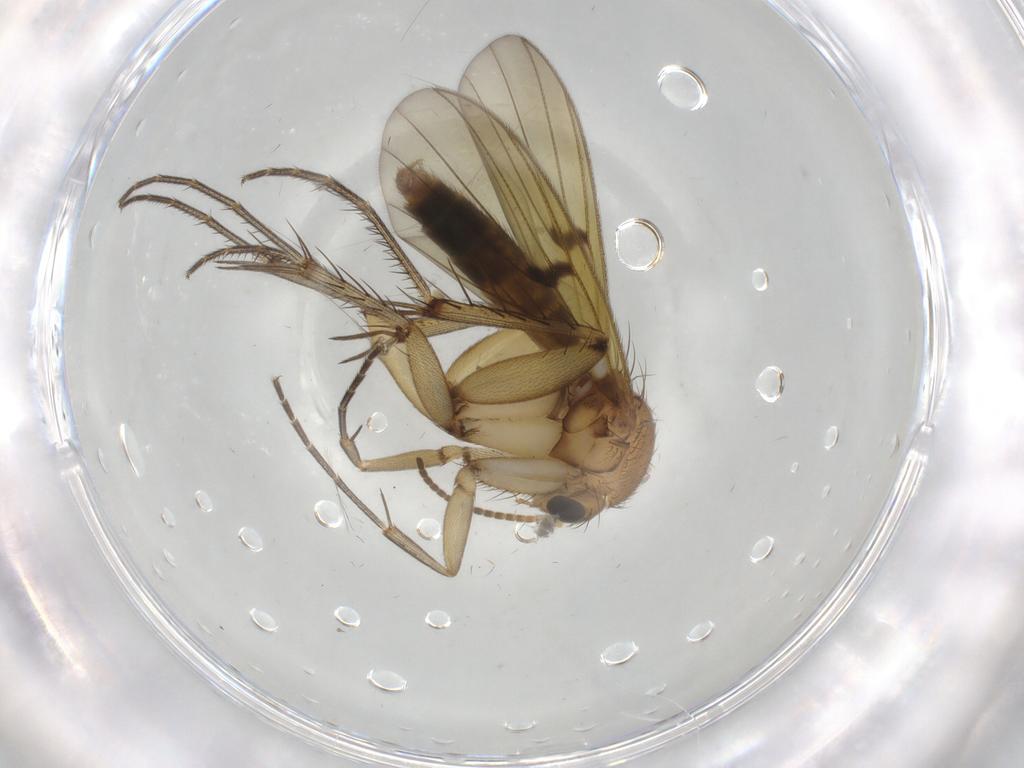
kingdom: Animalia
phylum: Arthropoda
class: Insecta
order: Diptera
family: Mycetophilidae
